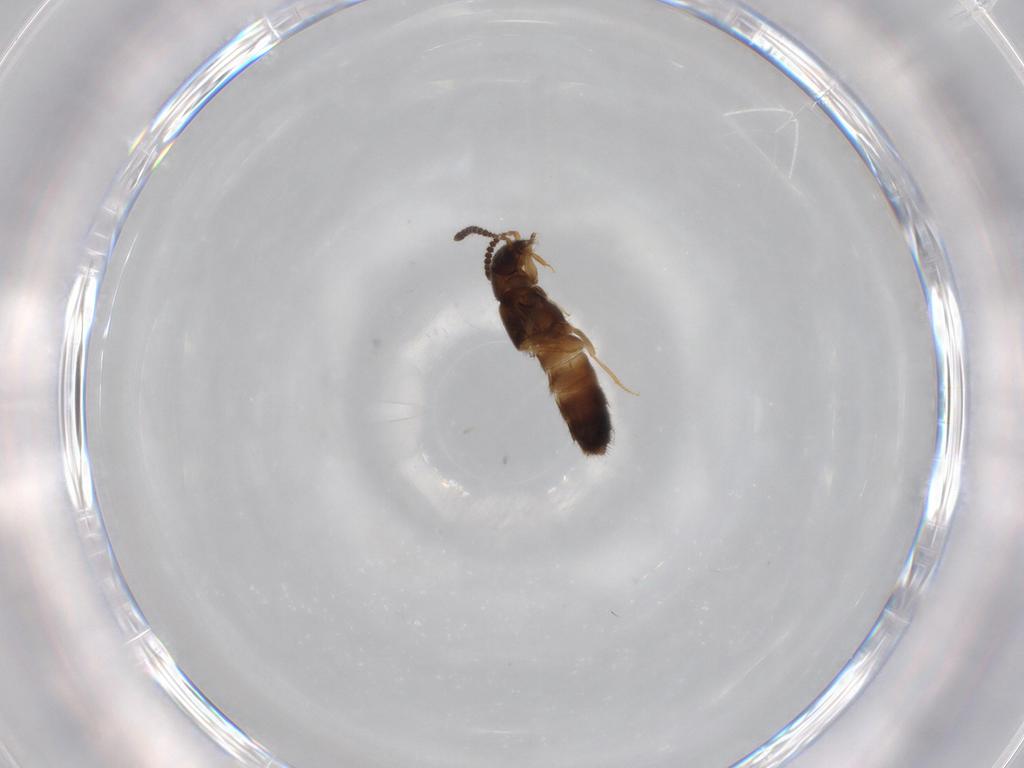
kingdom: Animalia
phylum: Arthropoda
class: Insecta
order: Coleoptera
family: Staphylinidae
